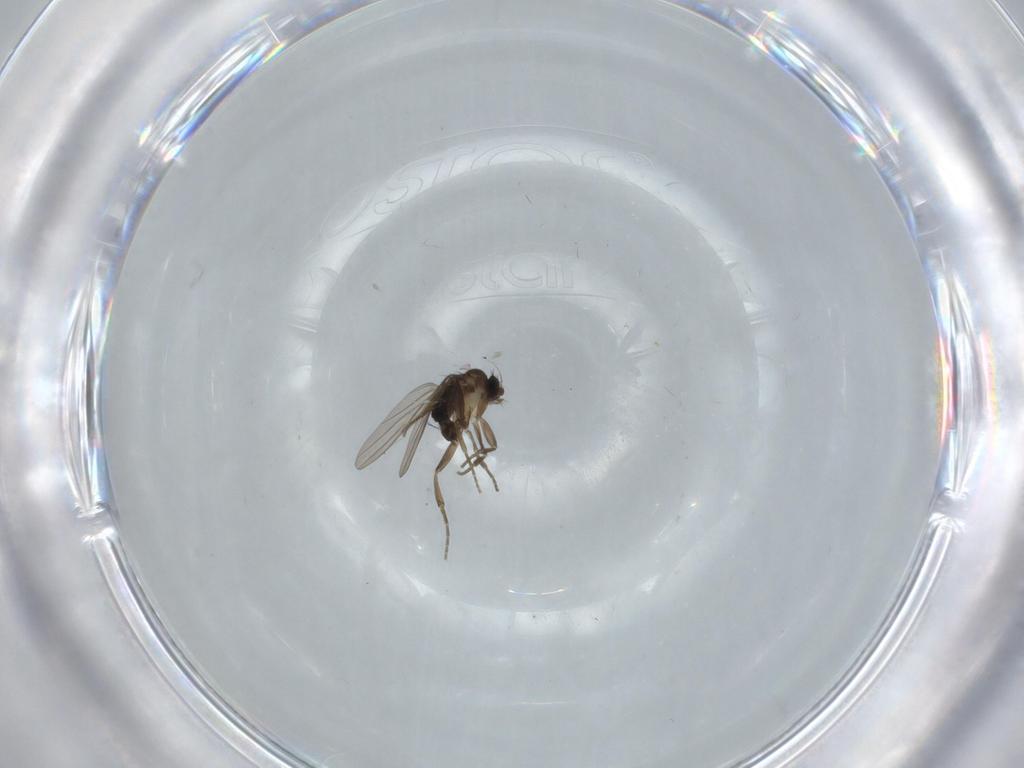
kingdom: Animalia
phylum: Arthropoda
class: Insecta
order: Diptera
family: Phoridae
